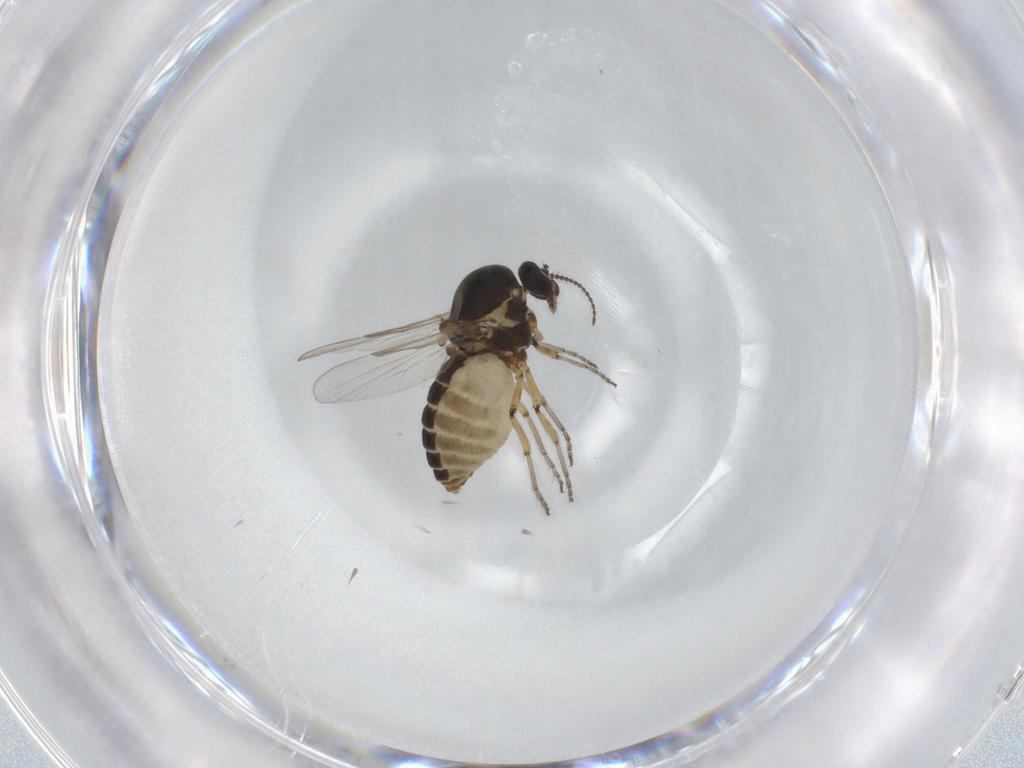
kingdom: Animalia
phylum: Arthropoda
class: Insecta
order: Diptera
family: Ceratopogonidae
